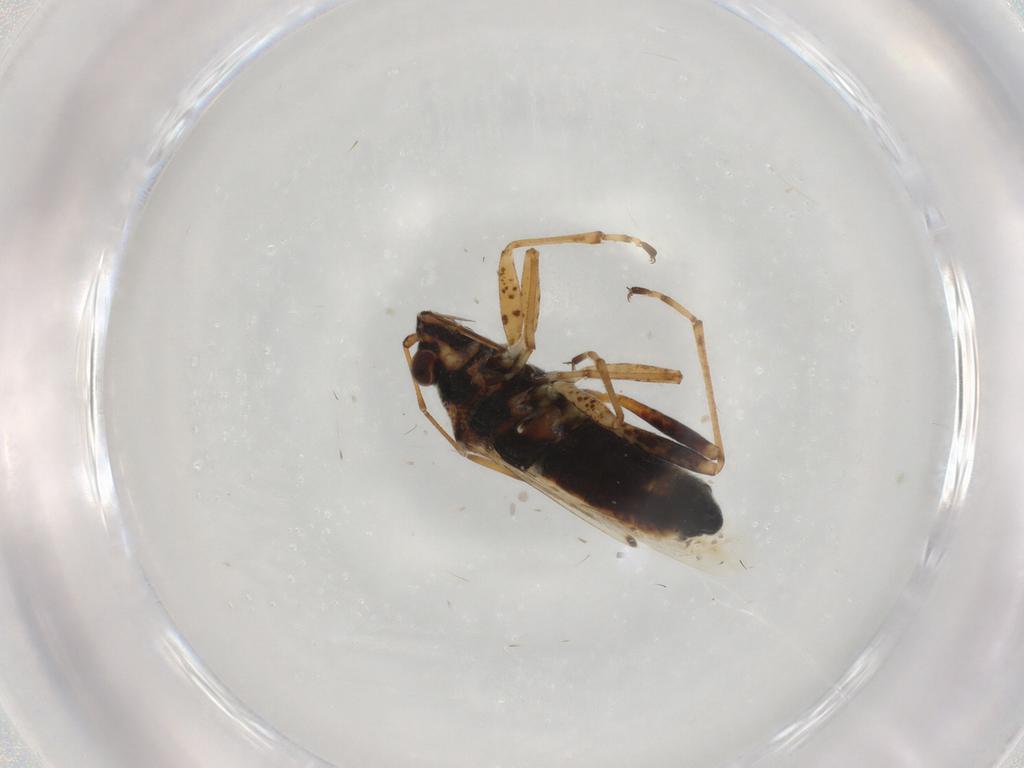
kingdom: Animalia
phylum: Arthropoda
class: Insecta
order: Hemiptera
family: Lygaeidae
